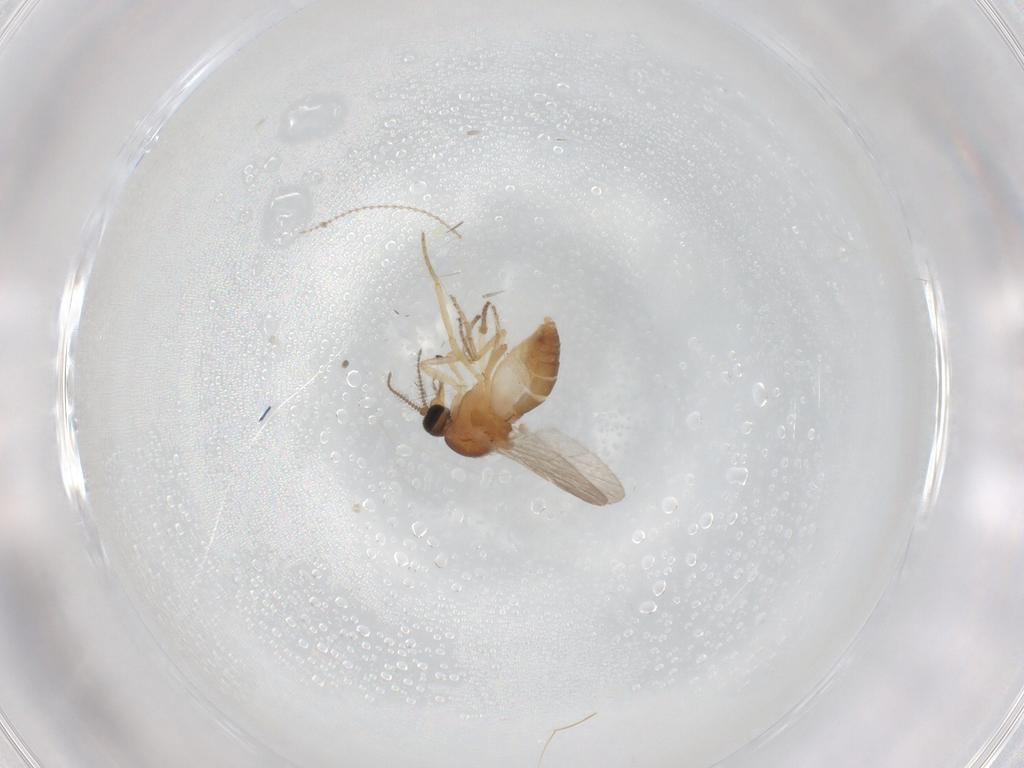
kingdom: Animalia
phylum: Arthropoda
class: Insecta
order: Diptera
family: Ceratopogonidae
